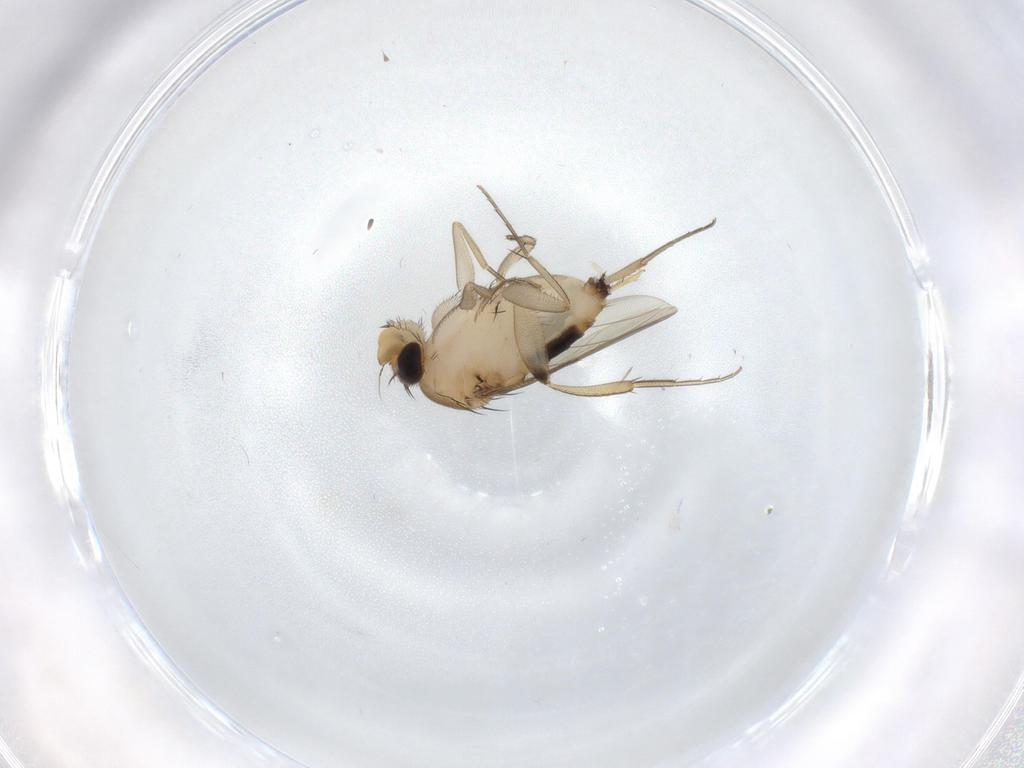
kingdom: Animalia
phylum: Arthropoda
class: Insecta
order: Diptera
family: Phoridae
